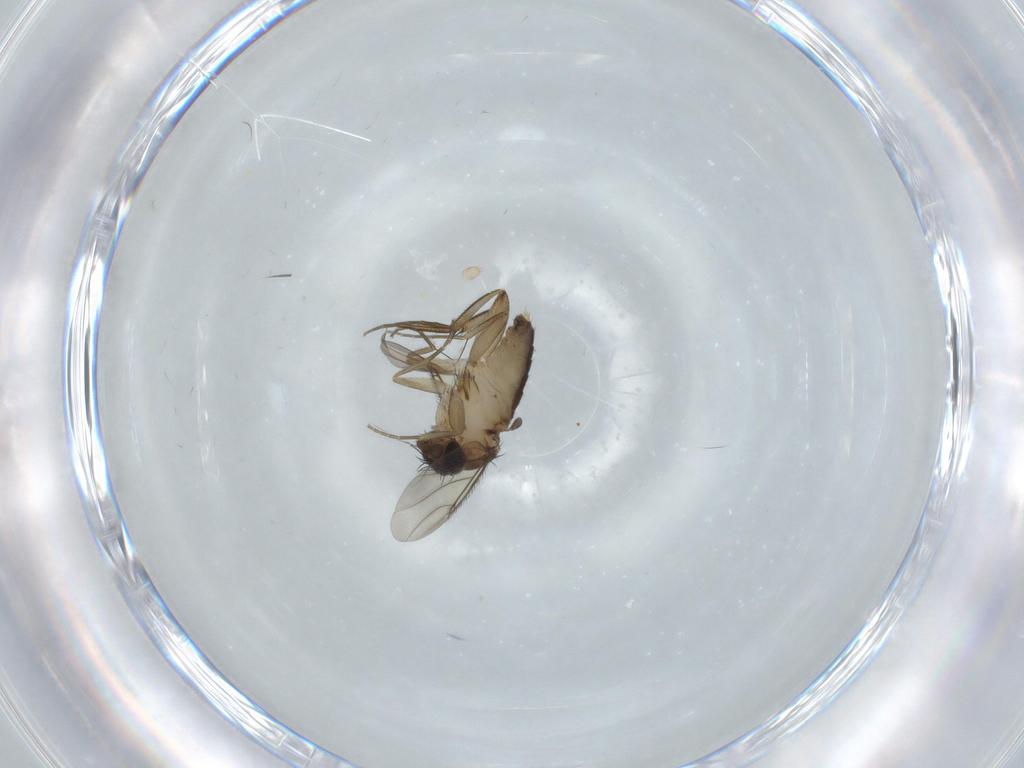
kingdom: Animalia
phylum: Arthropoda
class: Insecta
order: Diptera
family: Phoridae
